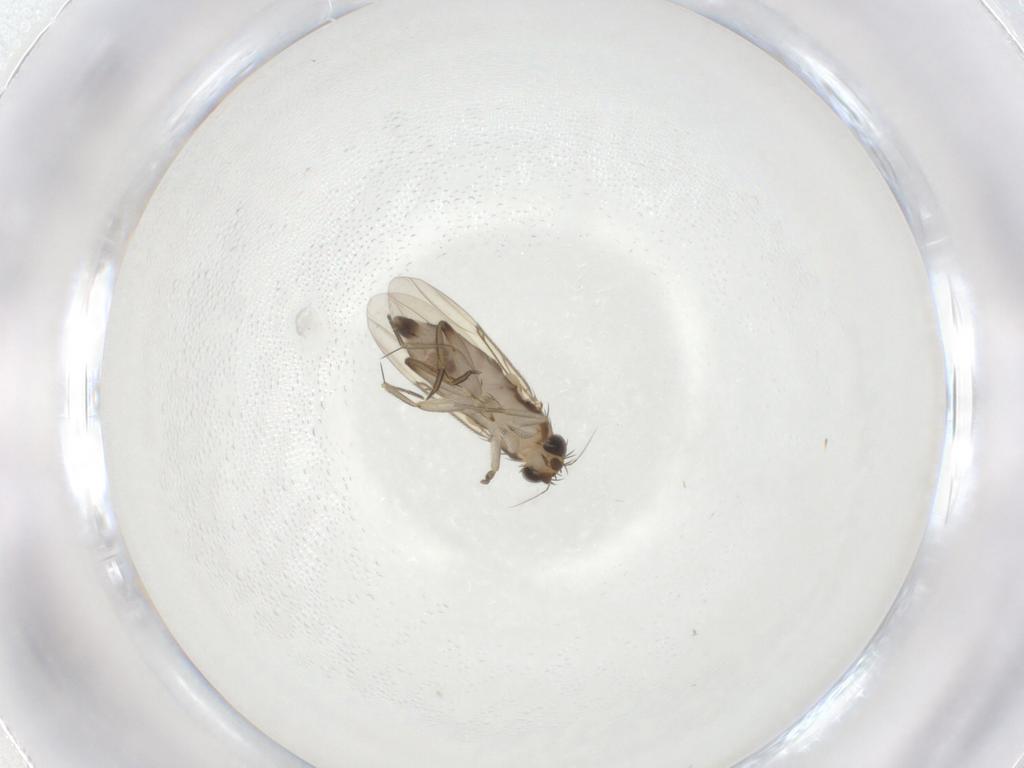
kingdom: Animalia
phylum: Arthropoda
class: Insecta
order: Diptera
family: Phoridae
